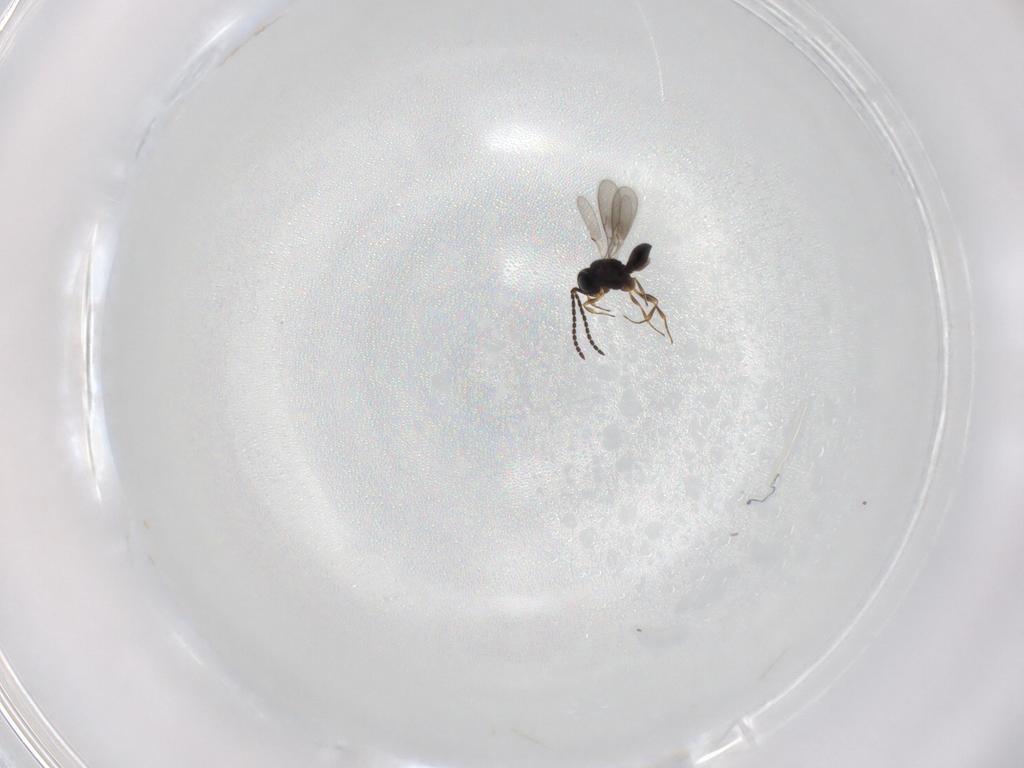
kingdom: Animalia
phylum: Arthropoda
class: Insecta
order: Hymenoptera
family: Scelionidae
